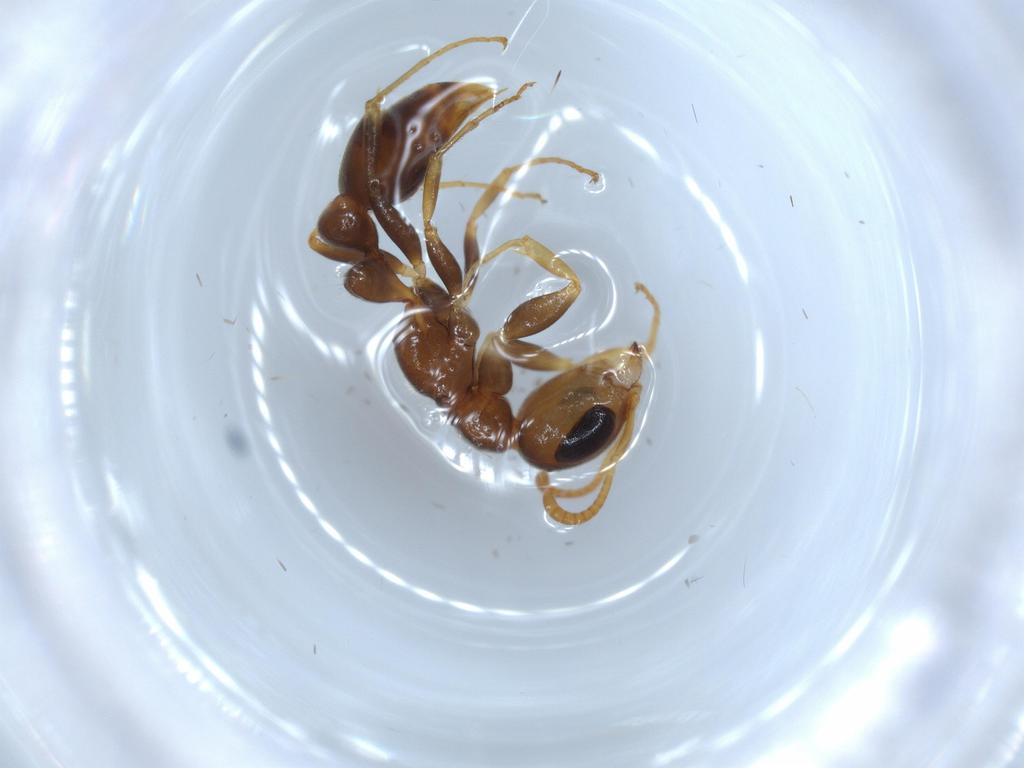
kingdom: Animalia
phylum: Arthropoda
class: Insecta
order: Hymenoptera
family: Formicidae
